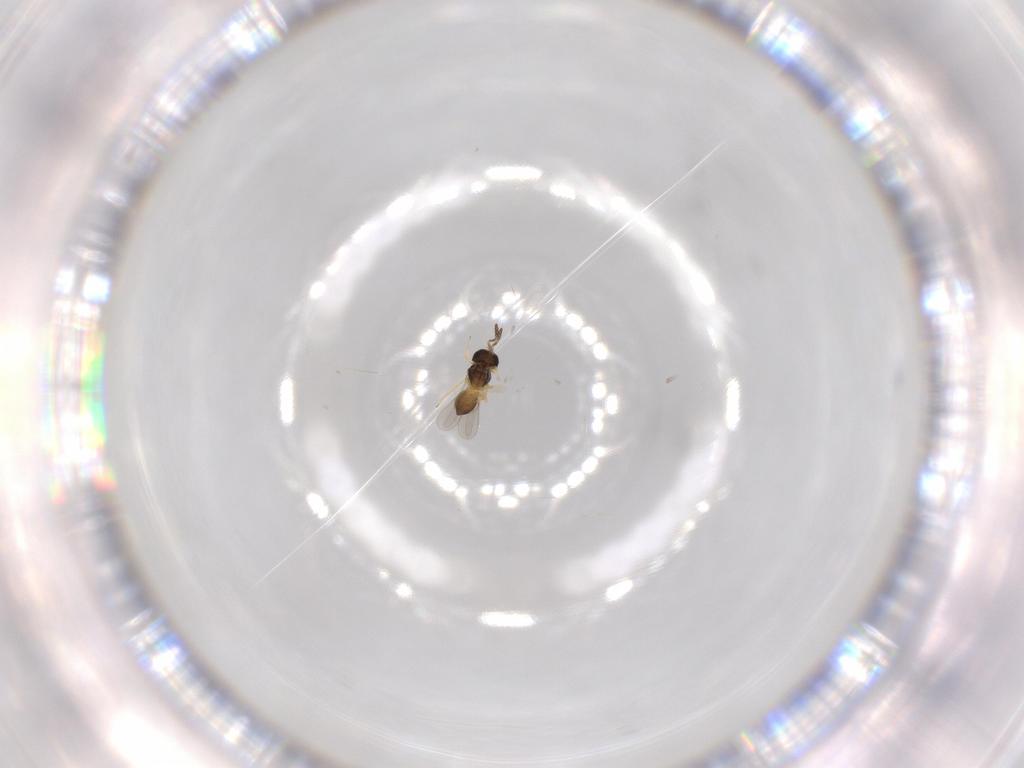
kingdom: Animalia
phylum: Arthropoda
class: Insecta
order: Hymenoptera
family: Scelionidae
